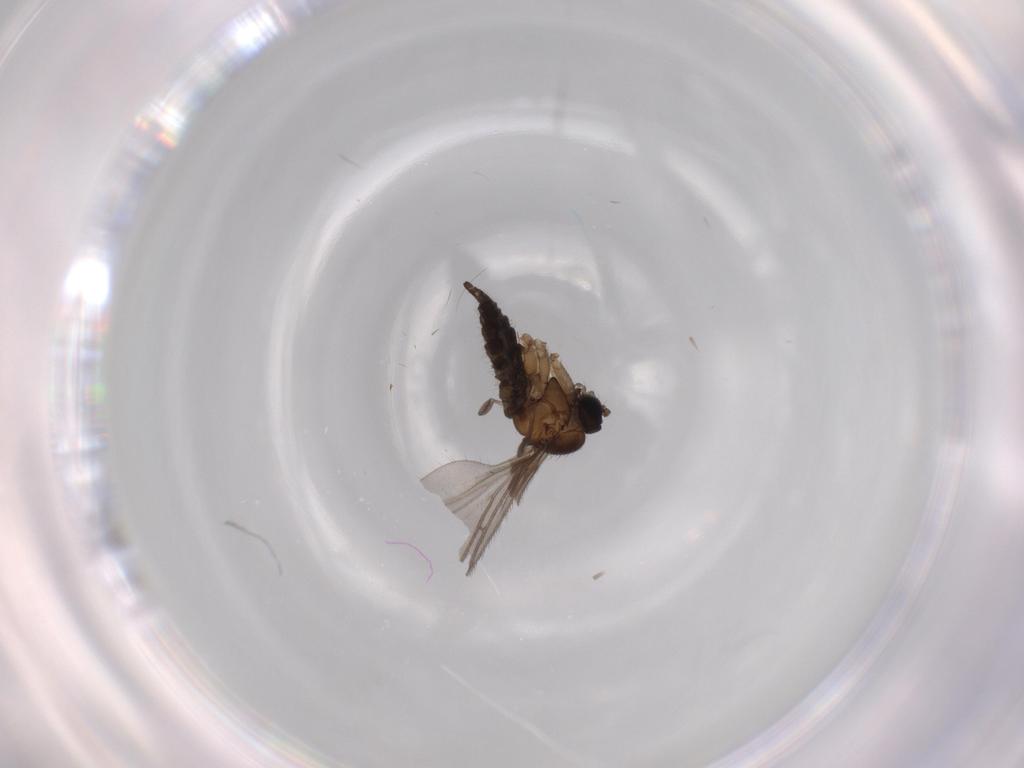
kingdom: Animalia
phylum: Arthropoda
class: Insecta
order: Diptera
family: Sciaridae
